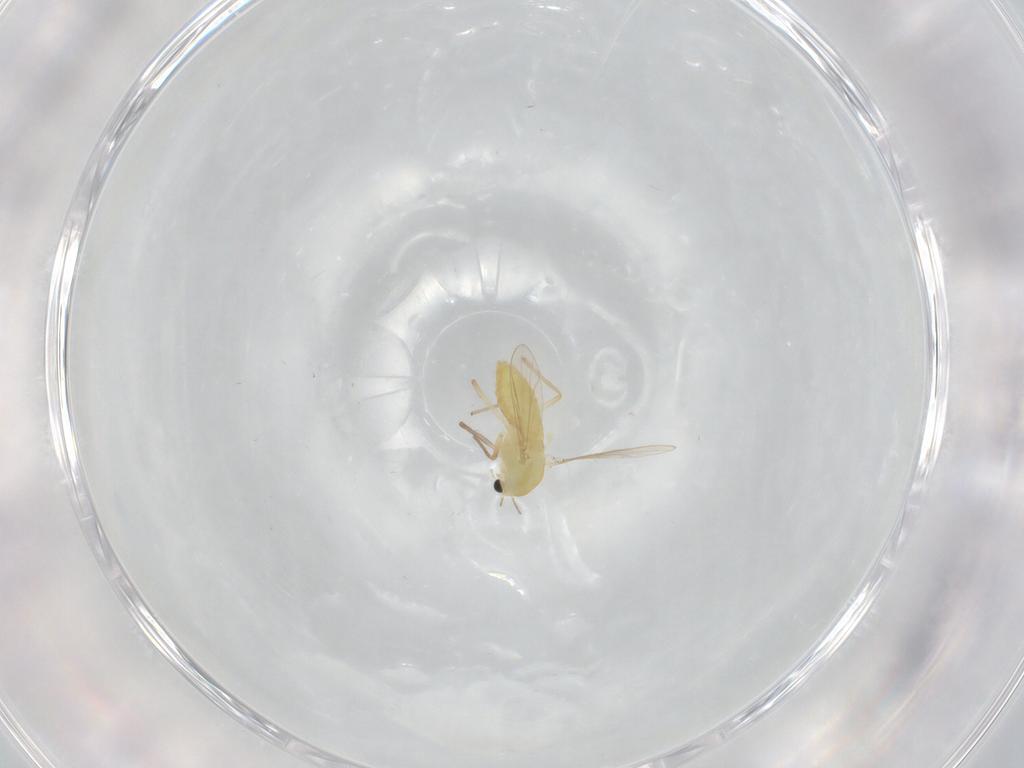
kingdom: Animalia
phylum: Arthropoda
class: Insecta
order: Diptera
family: Chironomidae
